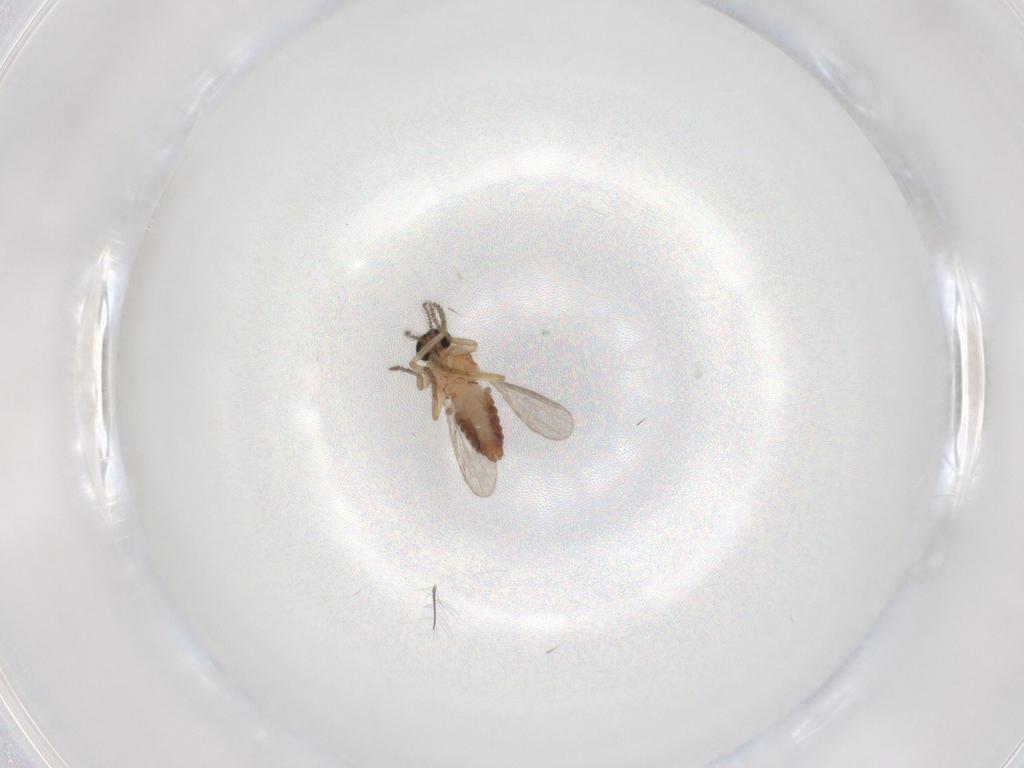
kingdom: Animalia
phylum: Arthropoda
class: Insecta
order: Diptera
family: Ceratopogonidae
